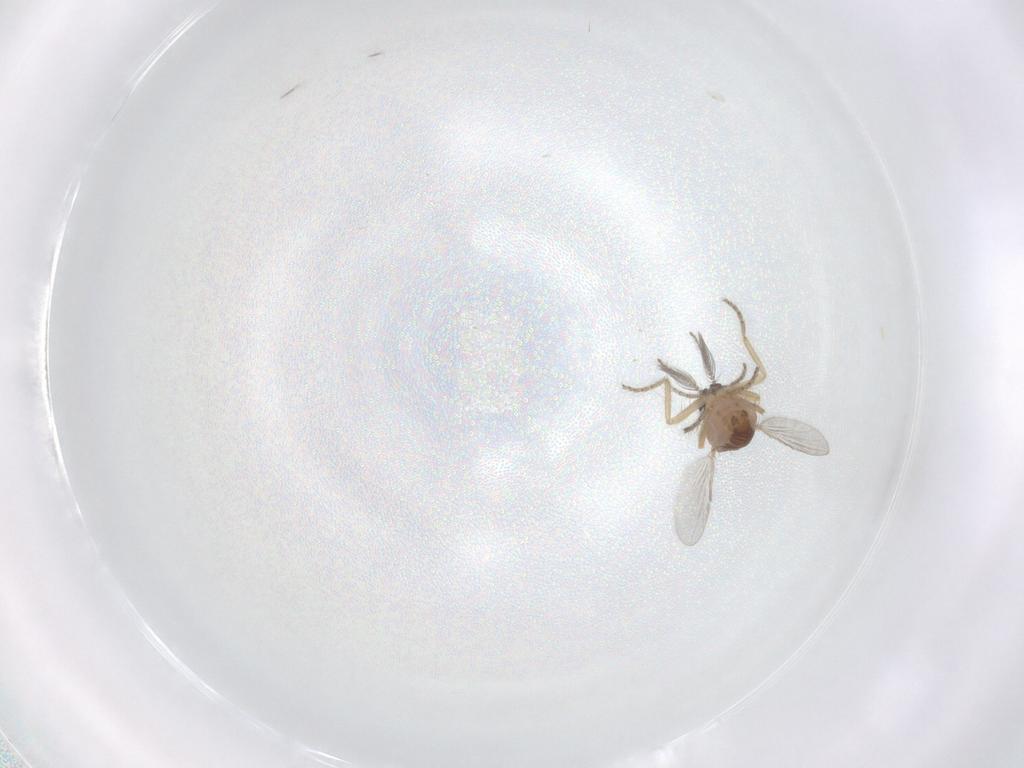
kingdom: Animalia
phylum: Arthropoda
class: Insecta
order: Diptera
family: Ceratopogonidae
